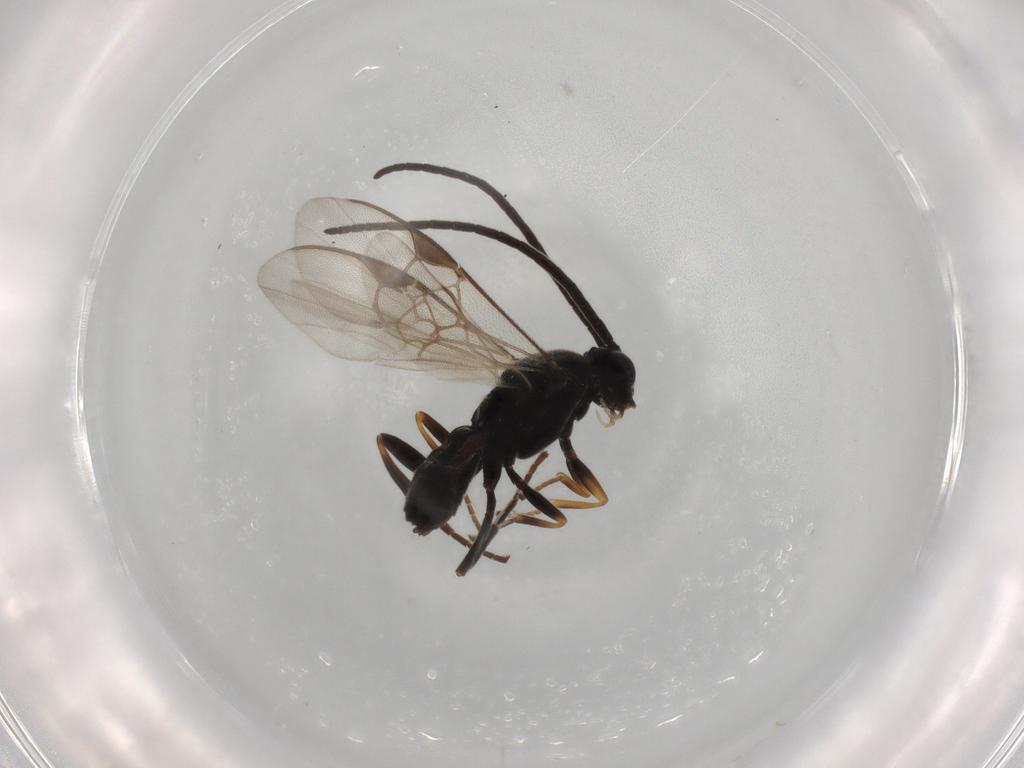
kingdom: Animalia
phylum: Arthropoda
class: Insecta
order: Hymenoptera
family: Braconidae
